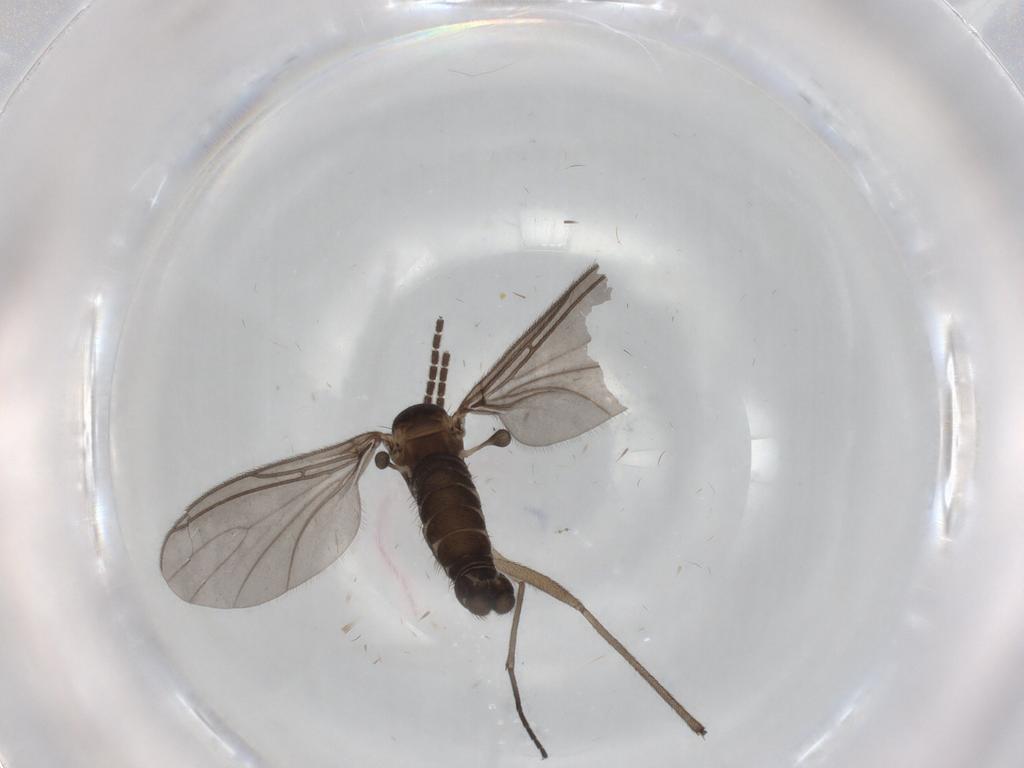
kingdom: Animalia
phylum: Arthropoda
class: Insecta
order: Diptera
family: Sciaridae
